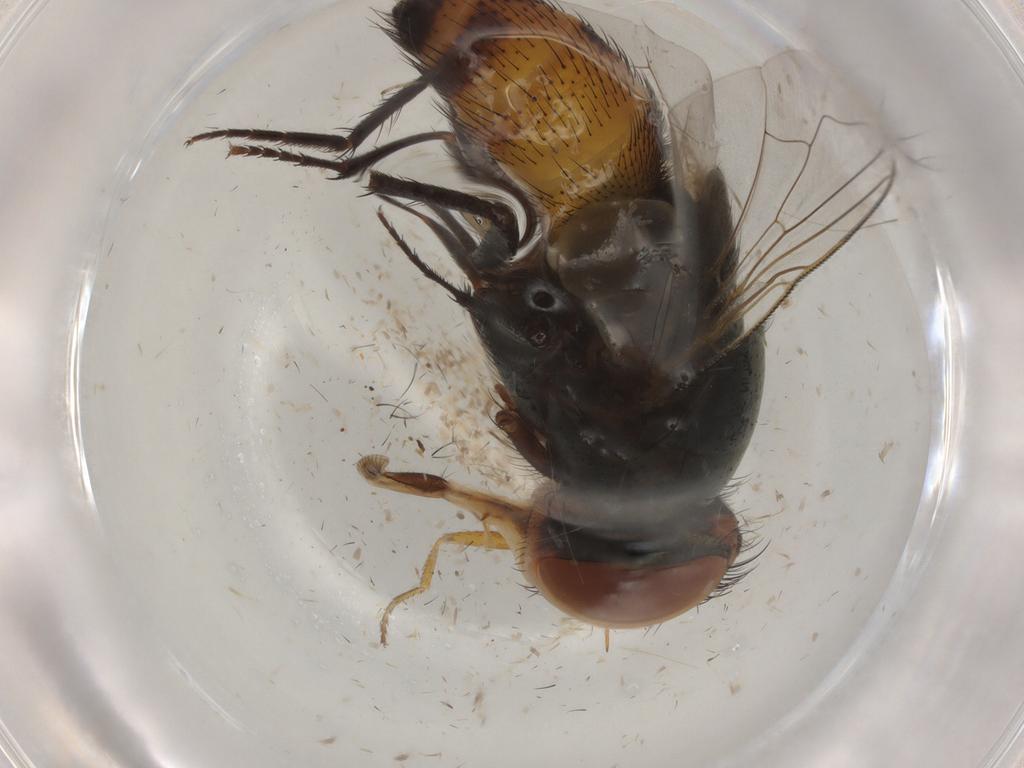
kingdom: Animalia
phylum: Arthropoda
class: Insecta
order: Diptera
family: Sarcophagidae
